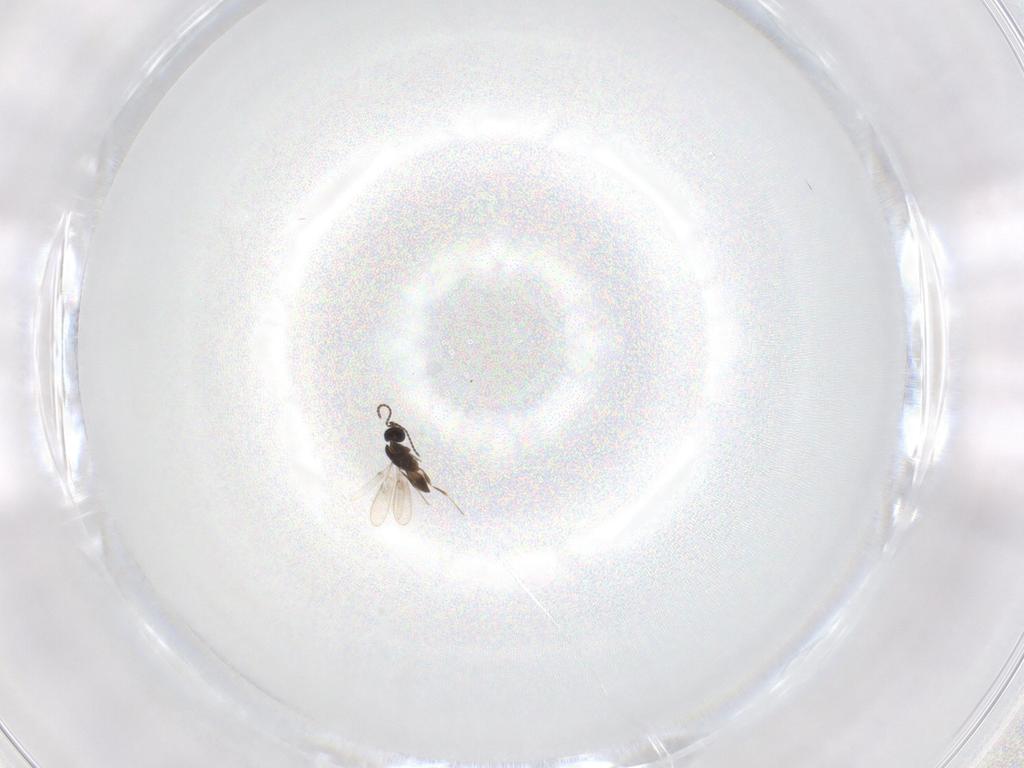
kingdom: Animalia
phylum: Arthropoda
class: Insecta
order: Hymenoptera
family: Scelionidae
